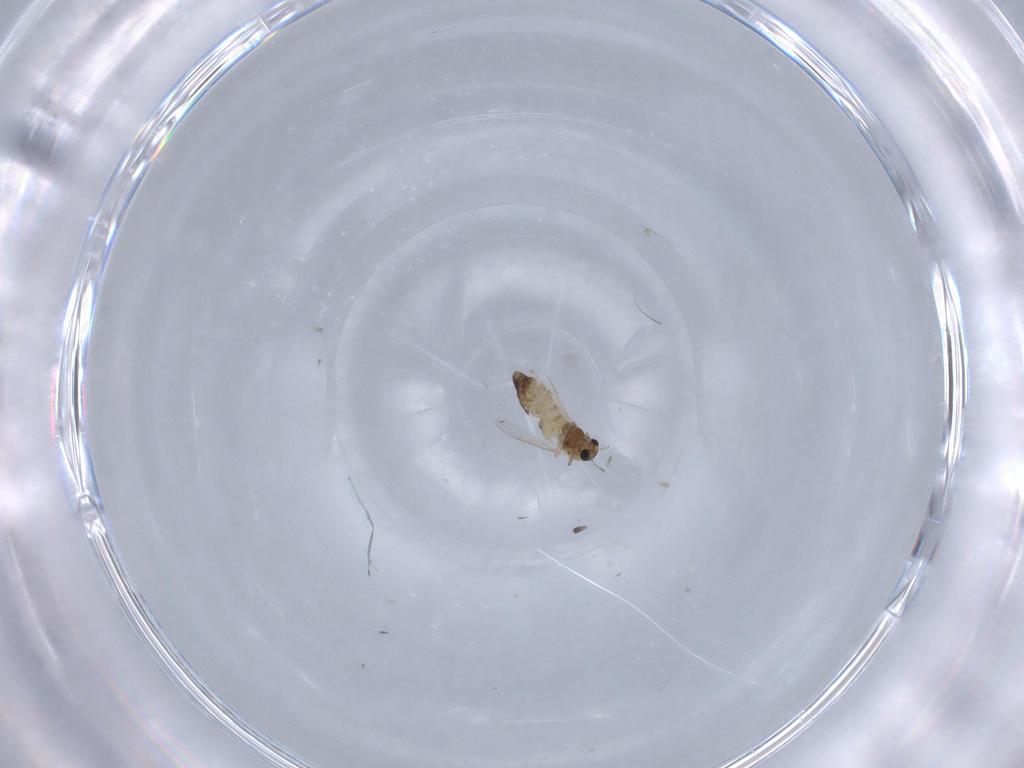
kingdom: Animalia
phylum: Arthropoda
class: Insecta
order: Diptera
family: Chironomidae
